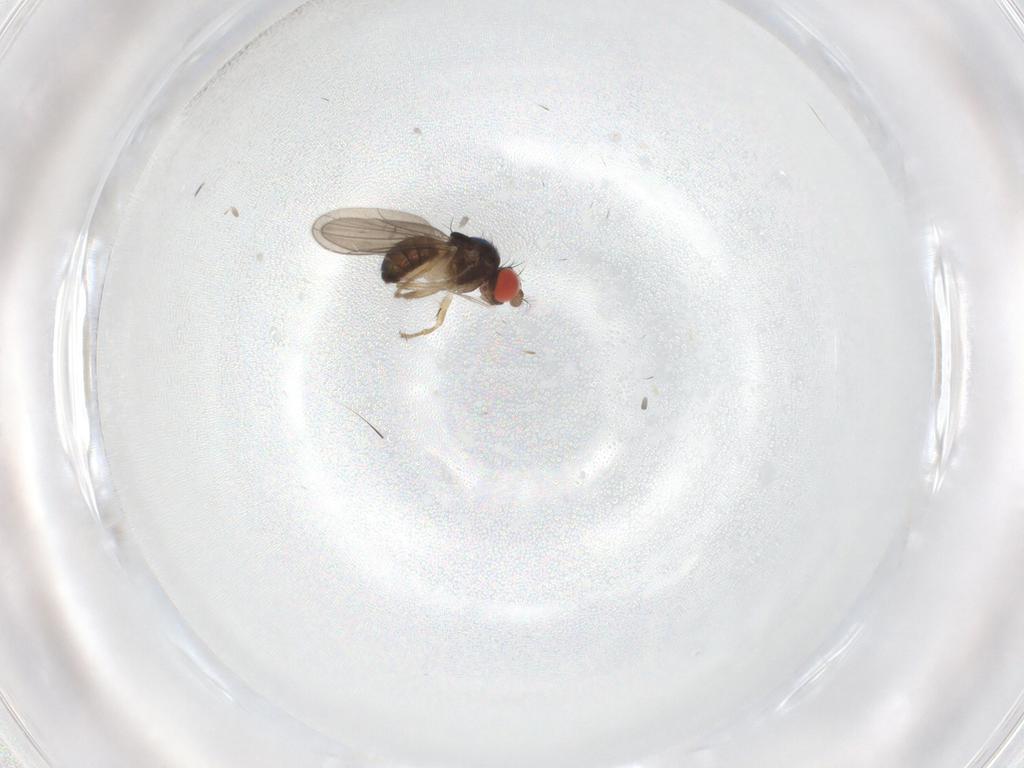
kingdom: Animalia
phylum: Arthropoda
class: Insecta
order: Diptera
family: Drosophilidae
